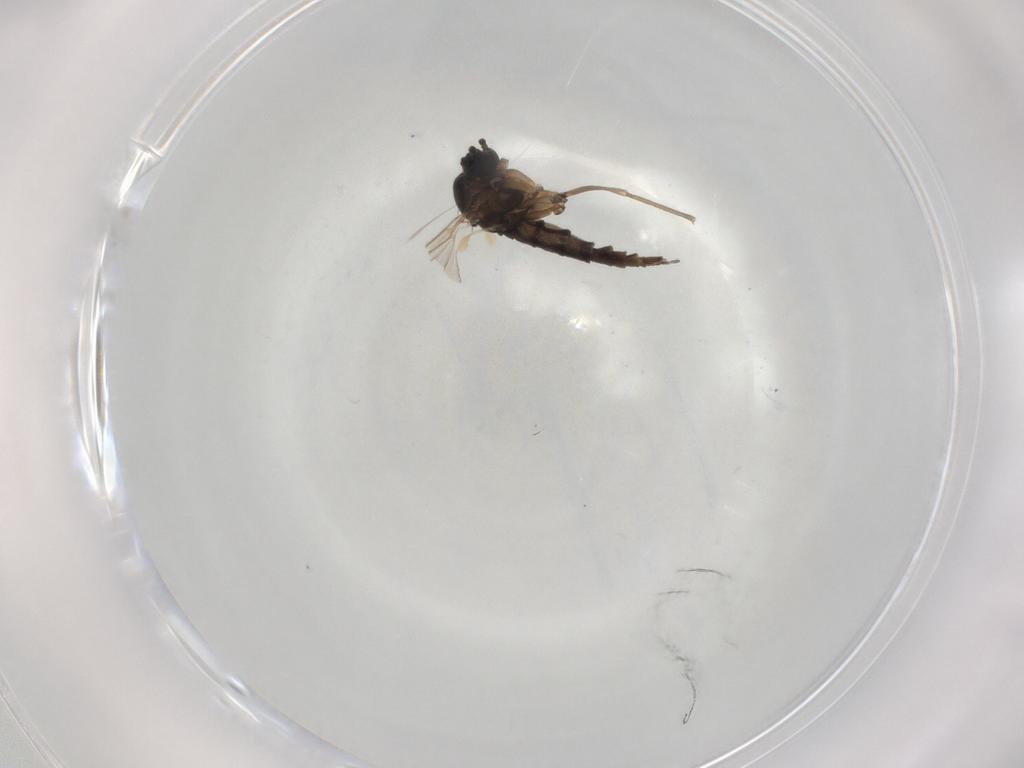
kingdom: Animalia
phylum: Arthropoda
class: Insecta
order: Diptera
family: Sciaridae
